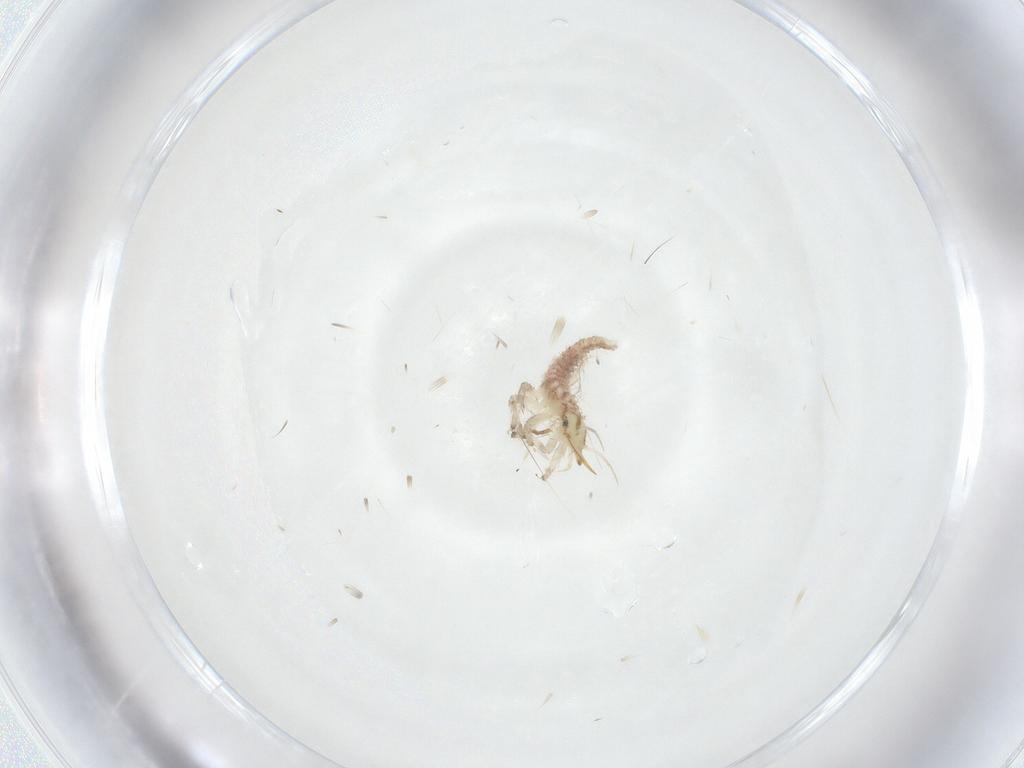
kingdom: Animalia
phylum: Arthropoda
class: Insecta
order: Neuroptera
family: Chrysopidae
